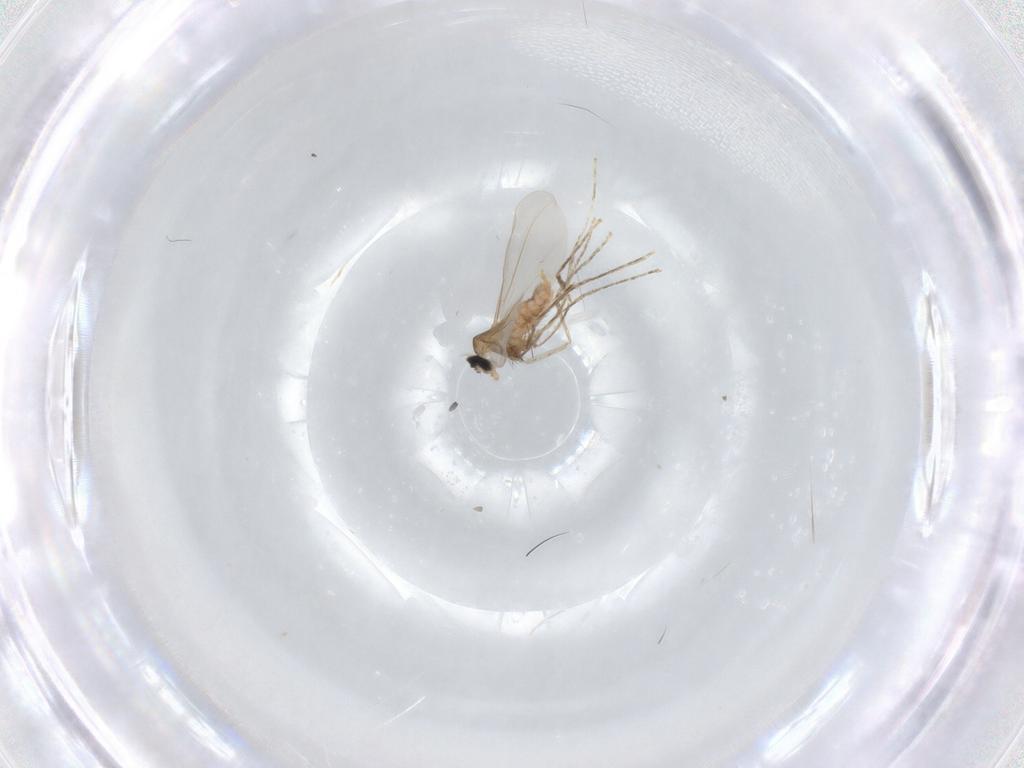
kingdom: Animalia
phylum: Arthropoda
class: Insecta
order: Diptera
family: Cecidomyiidae
